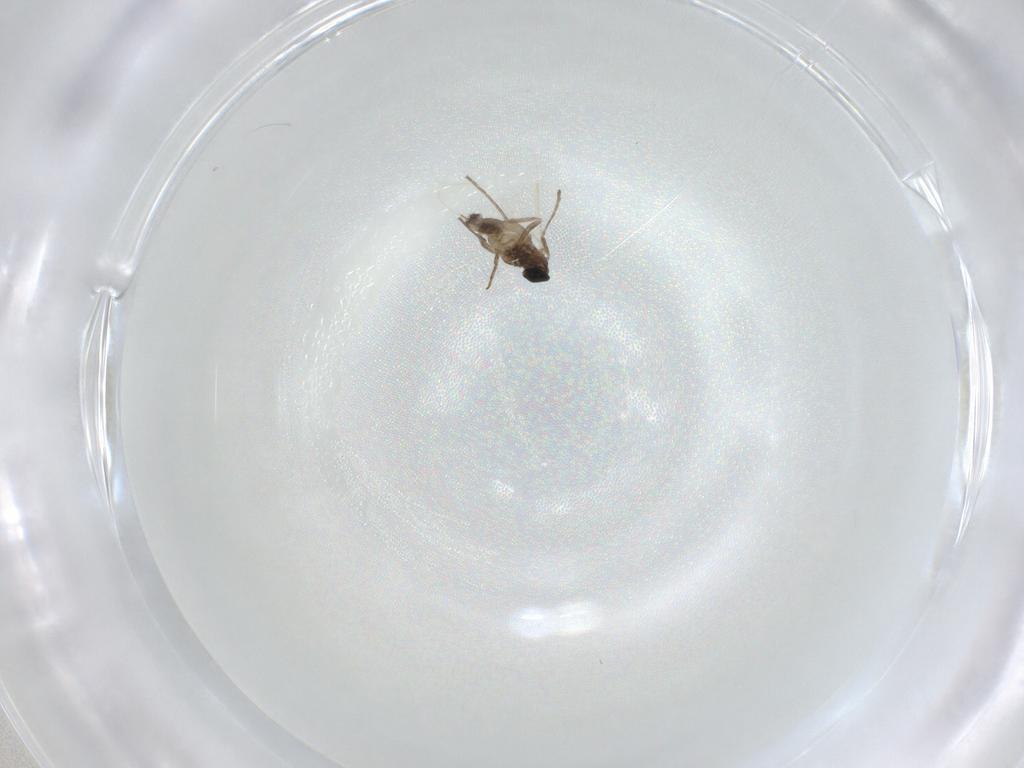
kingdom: Animalia
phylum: Arthropoda
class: Insecta
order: Diptera
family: Cecidomyiidae
